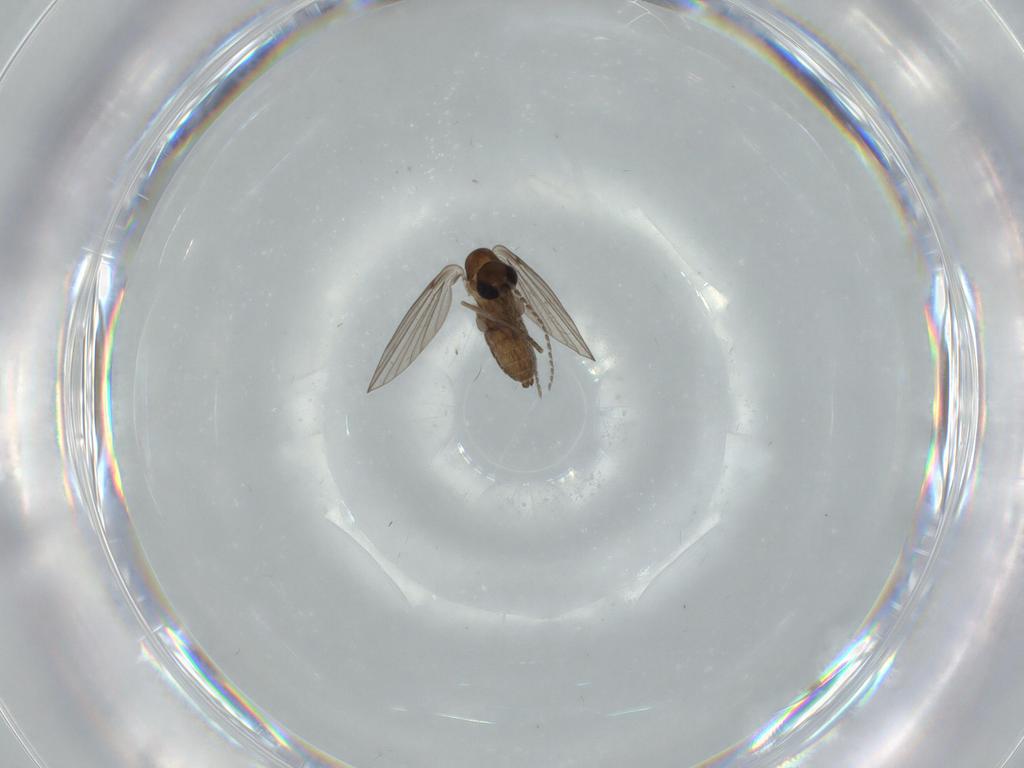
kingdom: Animalia
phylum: Arthropoda
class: Insecta
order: Diptera
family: Psychodidae
